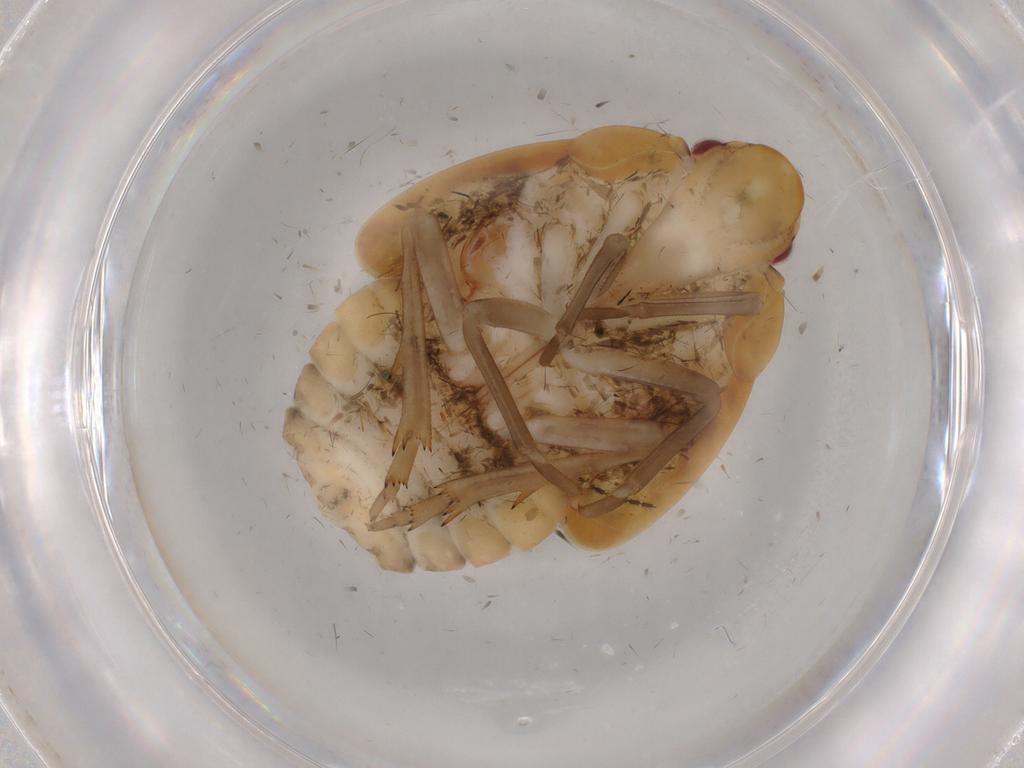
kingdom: Animalia
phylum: Arthropoda
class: Insecta
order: Hemiptera
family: Flatidae
